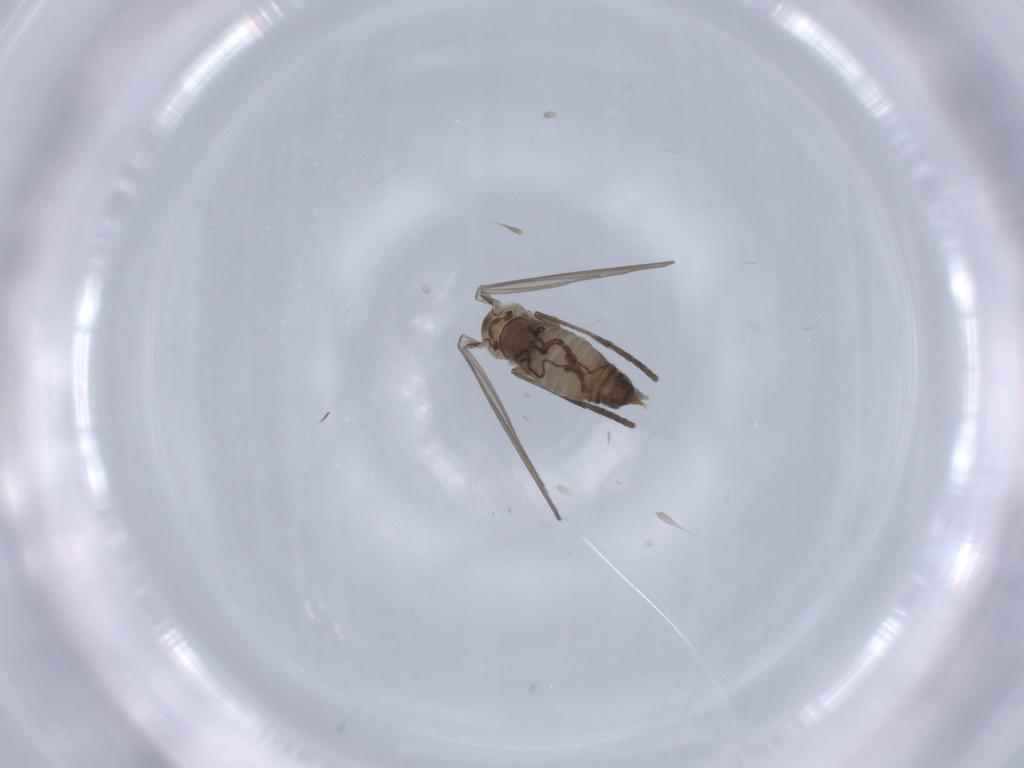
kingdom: Animalia
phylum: Arthropoda
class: Insecta
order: Diptera
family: Psychodidae
